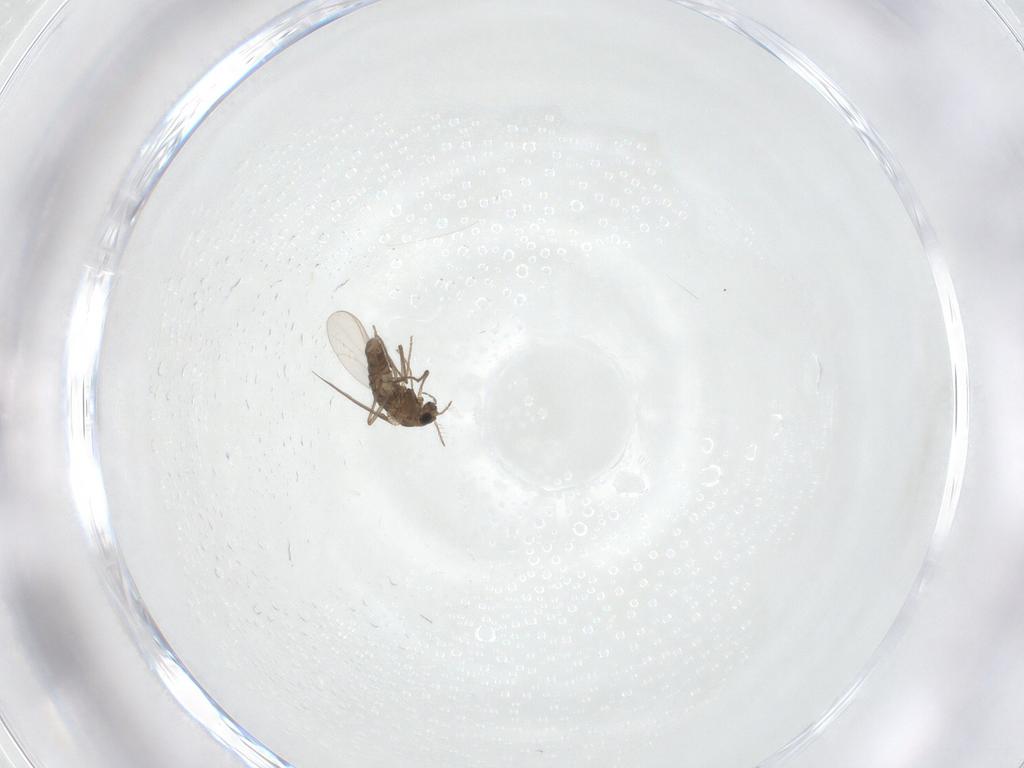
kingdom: Animalia
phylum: Arthropoda
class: Insecta
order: Diptera
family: Chironomidae
